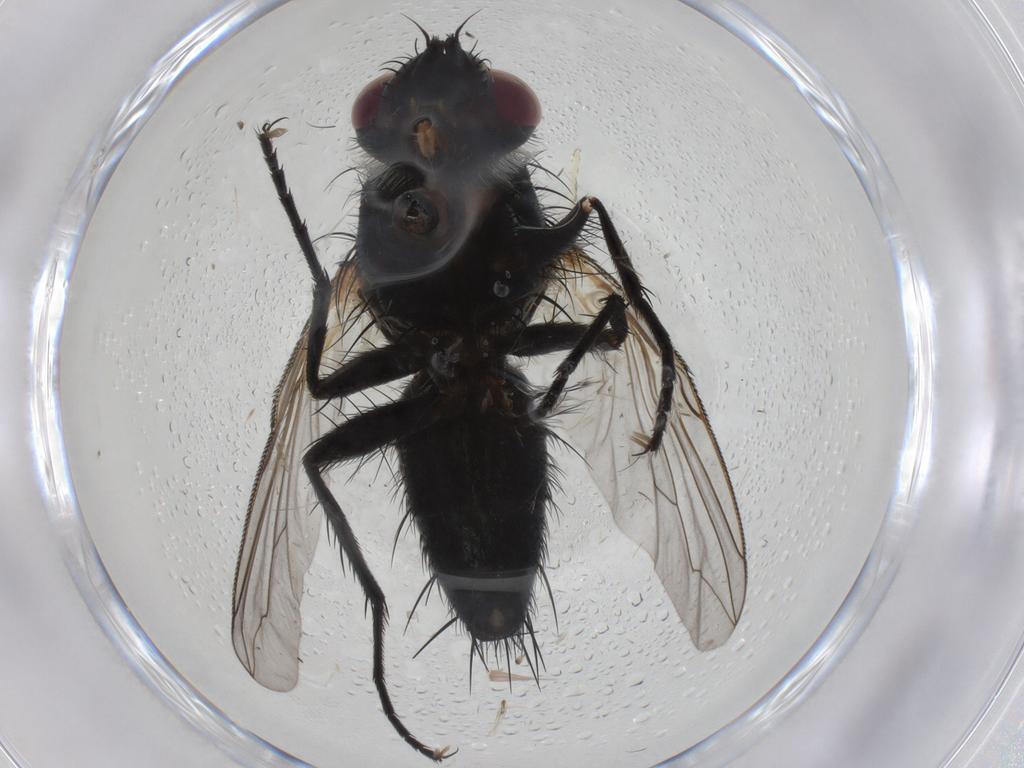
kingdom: Animalia
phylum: Arthropoda
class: Insecta
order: Diptera
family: Tachinidae
